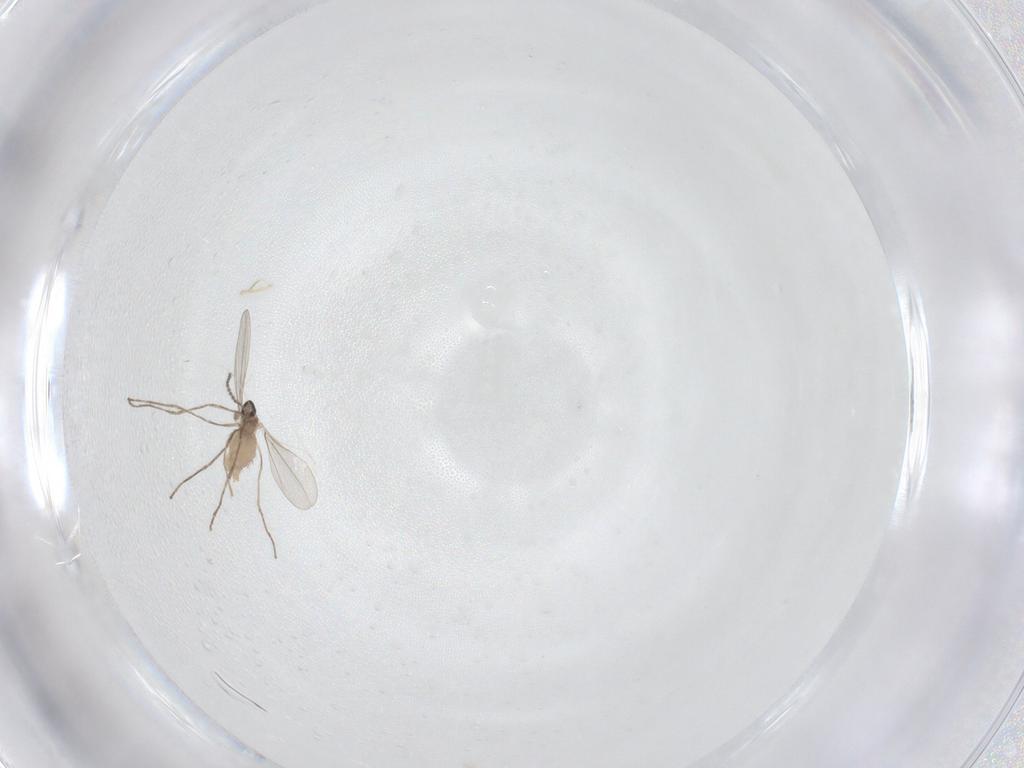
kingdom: Animalia
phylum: Arthropoda
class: Insecta
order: Diptera
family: Cecidomyiidae
